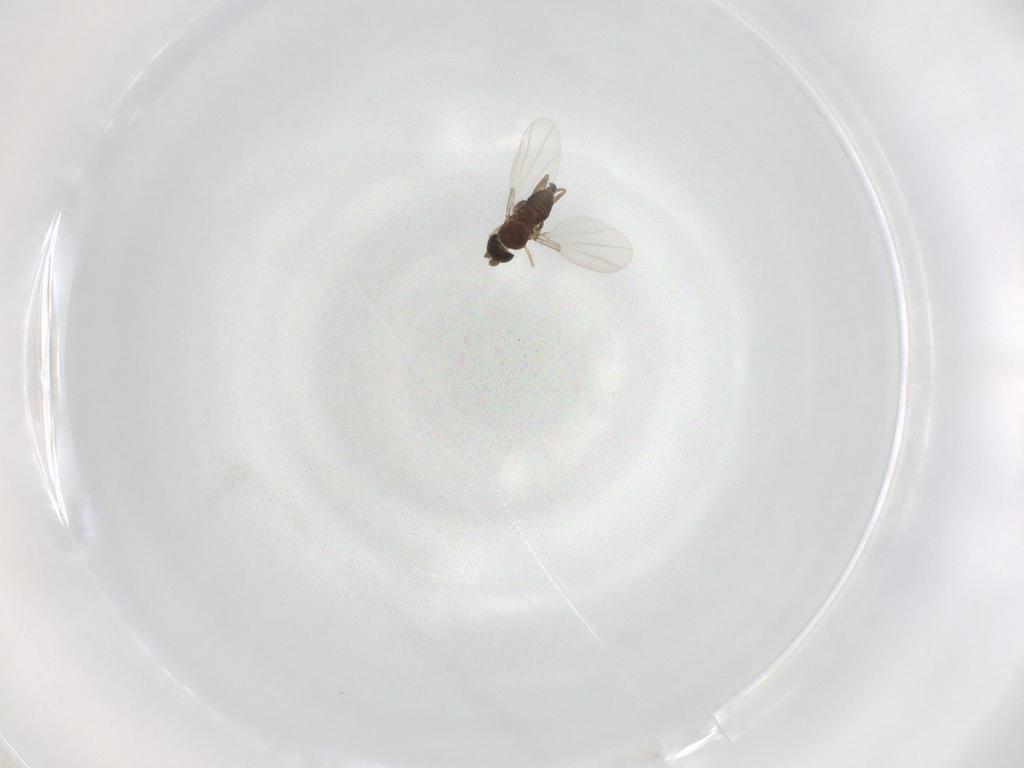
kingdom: Animalia
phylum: Arthropoda
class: Insecta
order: Diptera
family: Phoridae
